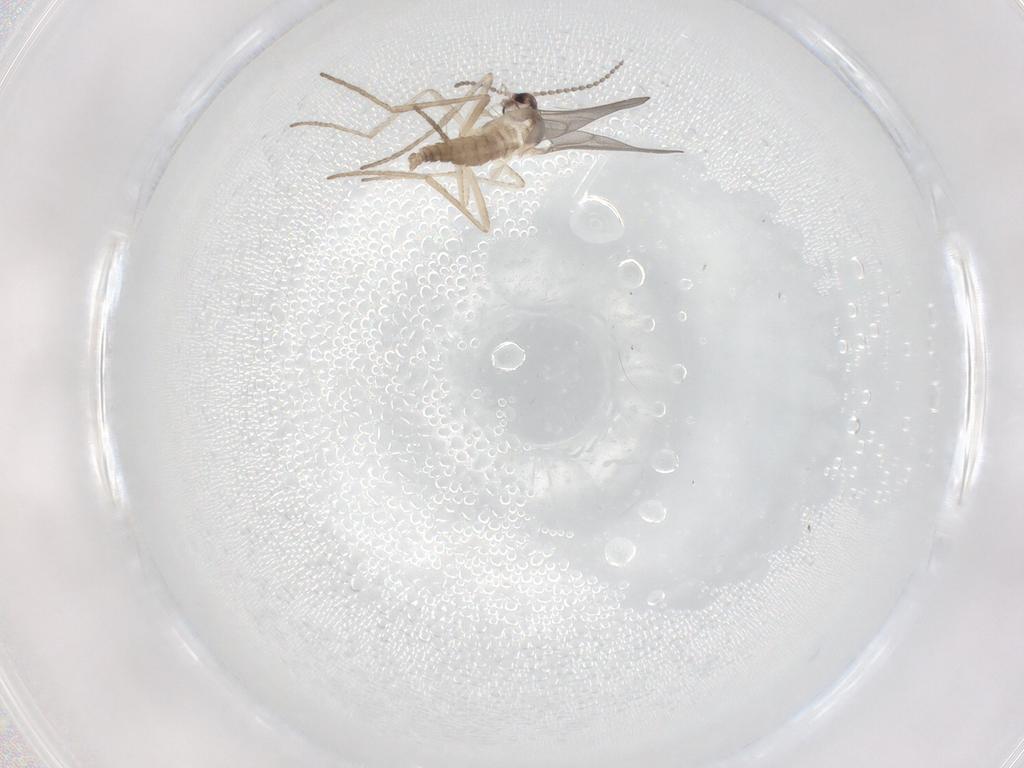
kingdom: Animalia
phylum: Arthropoda
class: Insecta
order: Diptera
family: Agromyzidae
